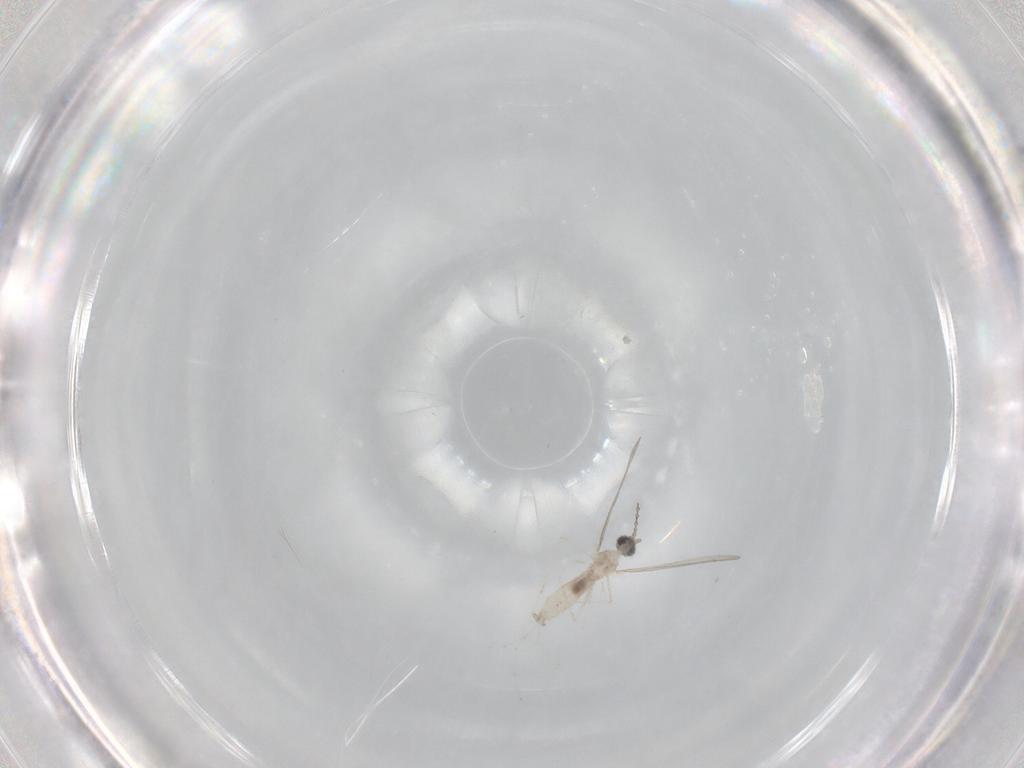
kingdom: Animalia
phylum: Arthropoda
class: Insecta
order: Diptera
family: Cecidomyiidae
